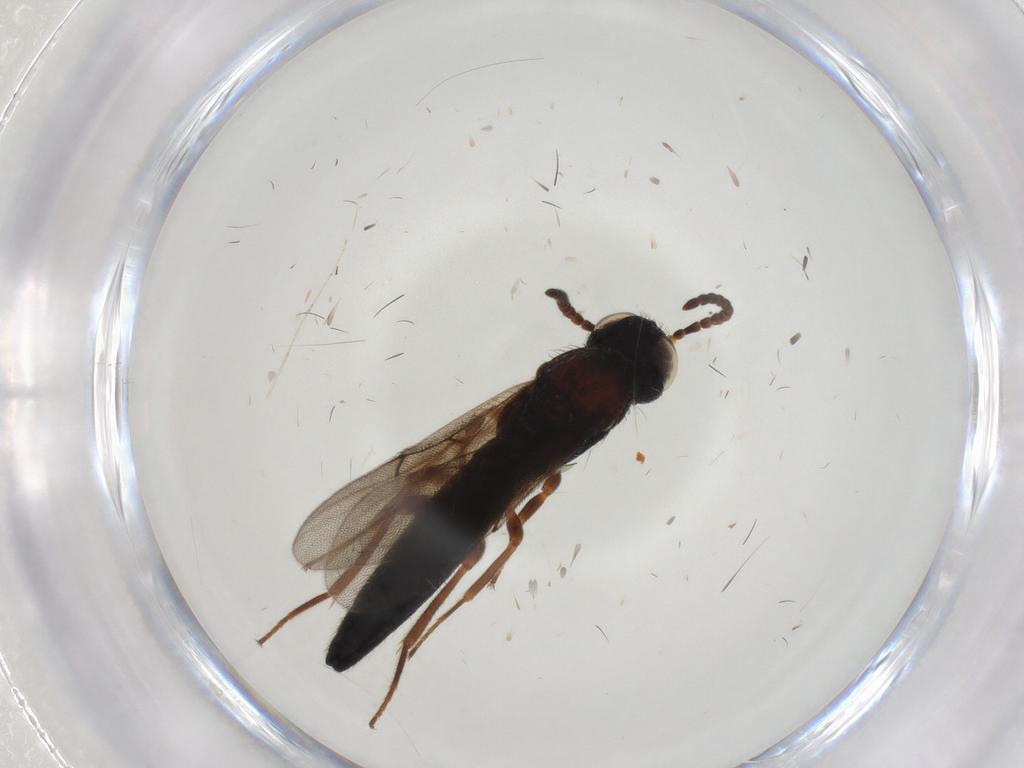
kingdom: Animalia
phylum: Arthropoda
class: Insecta
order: Hymenoptera
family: Scelionidae
